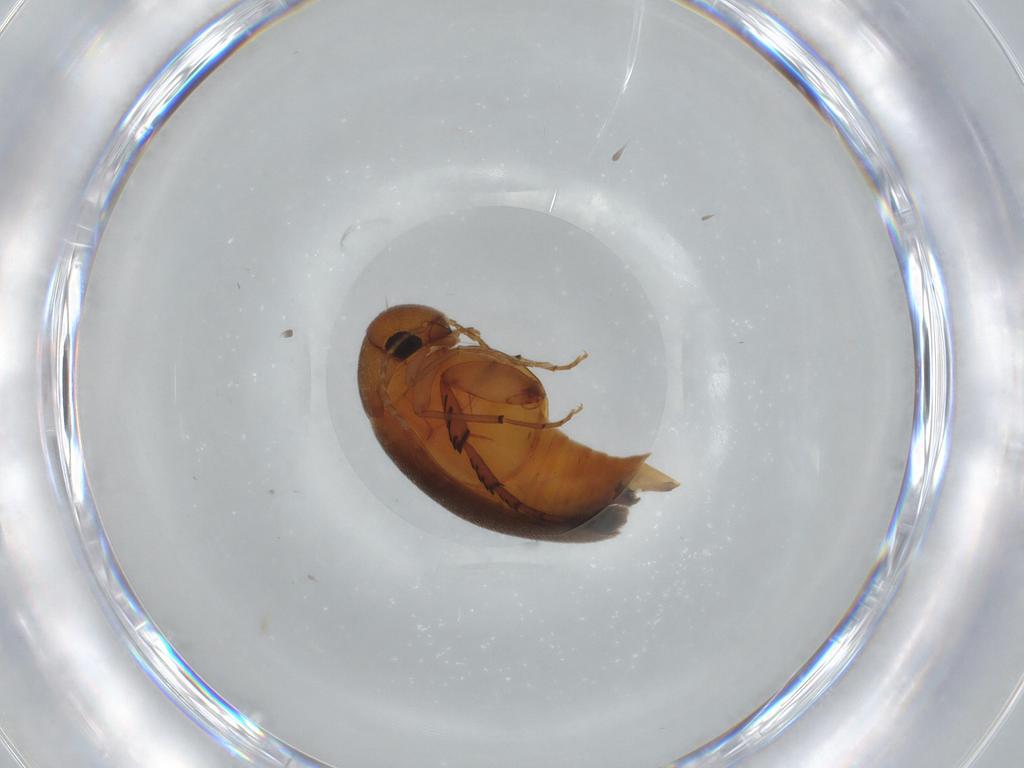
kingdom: Animalia
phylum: Arthropoda
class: Insecta
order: Coleoptera
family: Mordellidae
